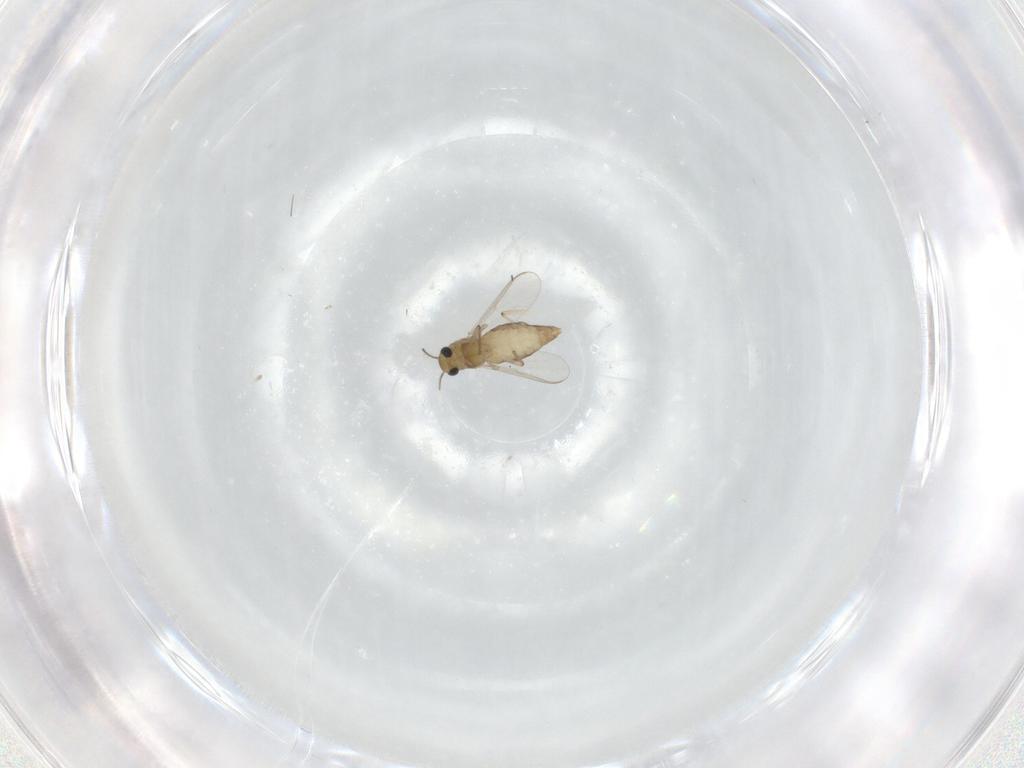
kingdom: Animalia
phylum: Arthropoda
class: Insecta
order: Diptera
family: Chironomidae
